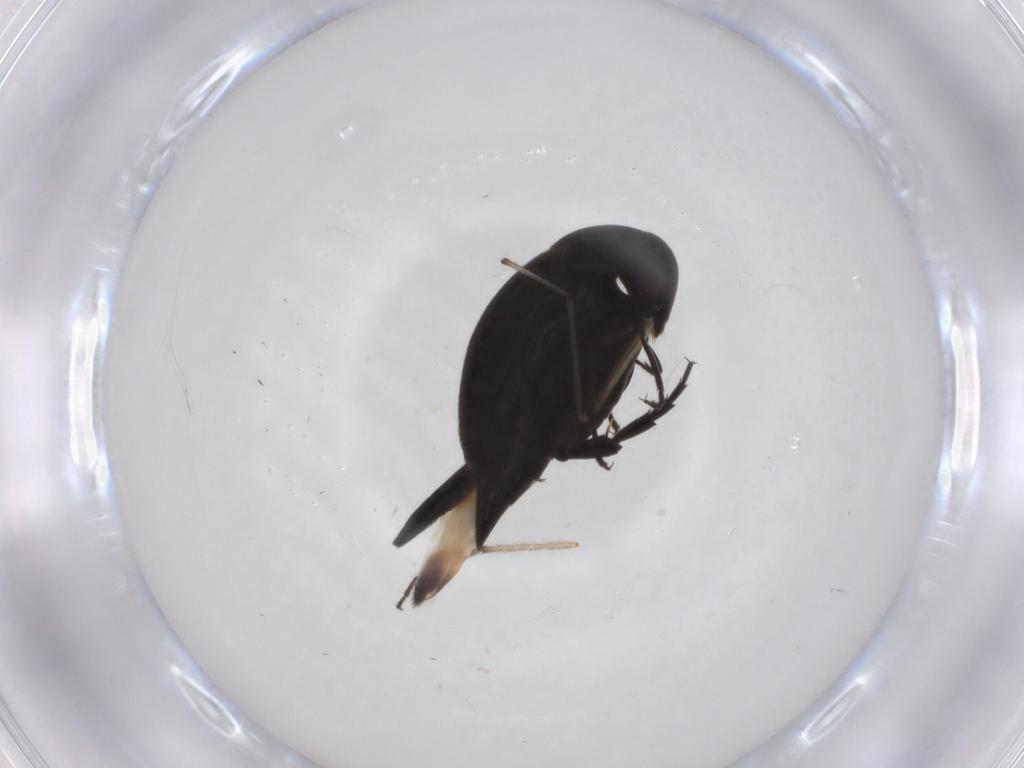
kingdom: Animalia
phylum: Arthropoda
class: Insecta
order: Coleoptera
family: Mordellidae
